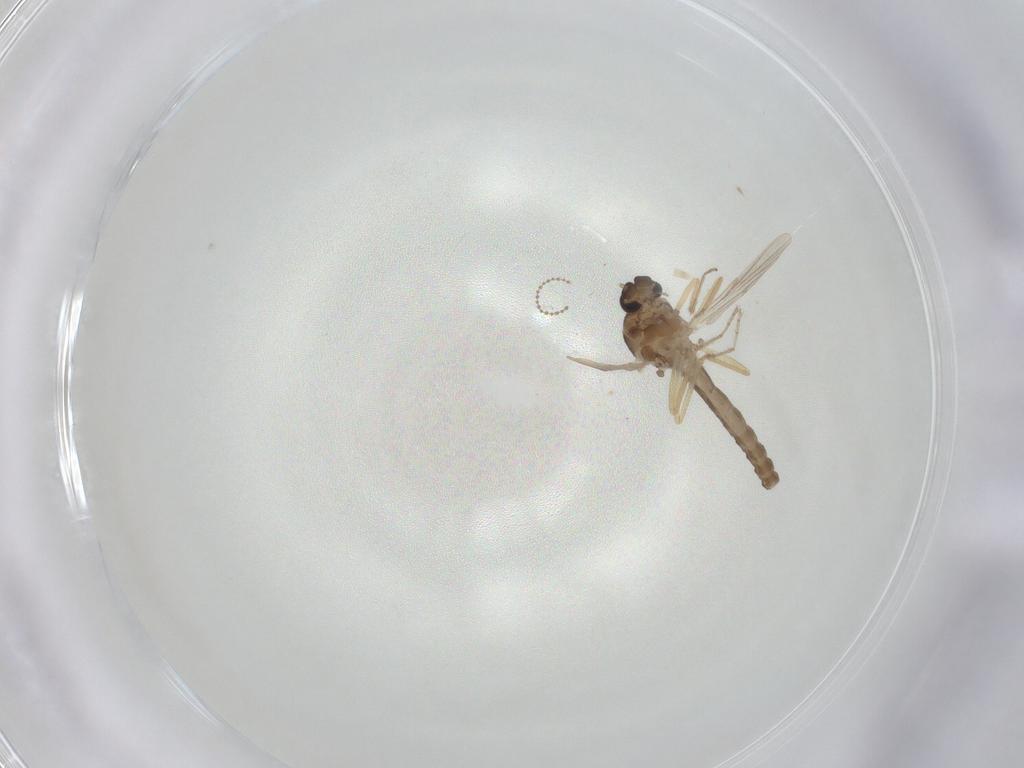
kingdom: Animalia
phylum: Arthropoda
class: Insecta
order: Diptera
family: Ceratopogonidae
